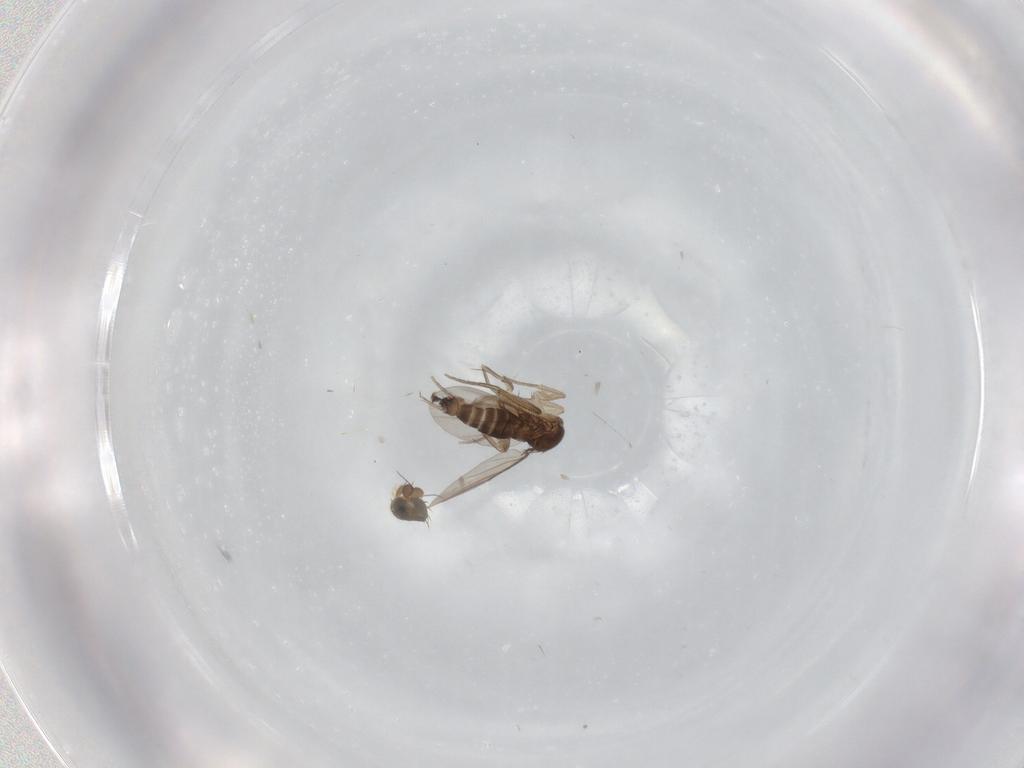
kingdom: Animalia
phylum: Arthropoda
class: Insecta
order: Diptera
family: Phoridae
